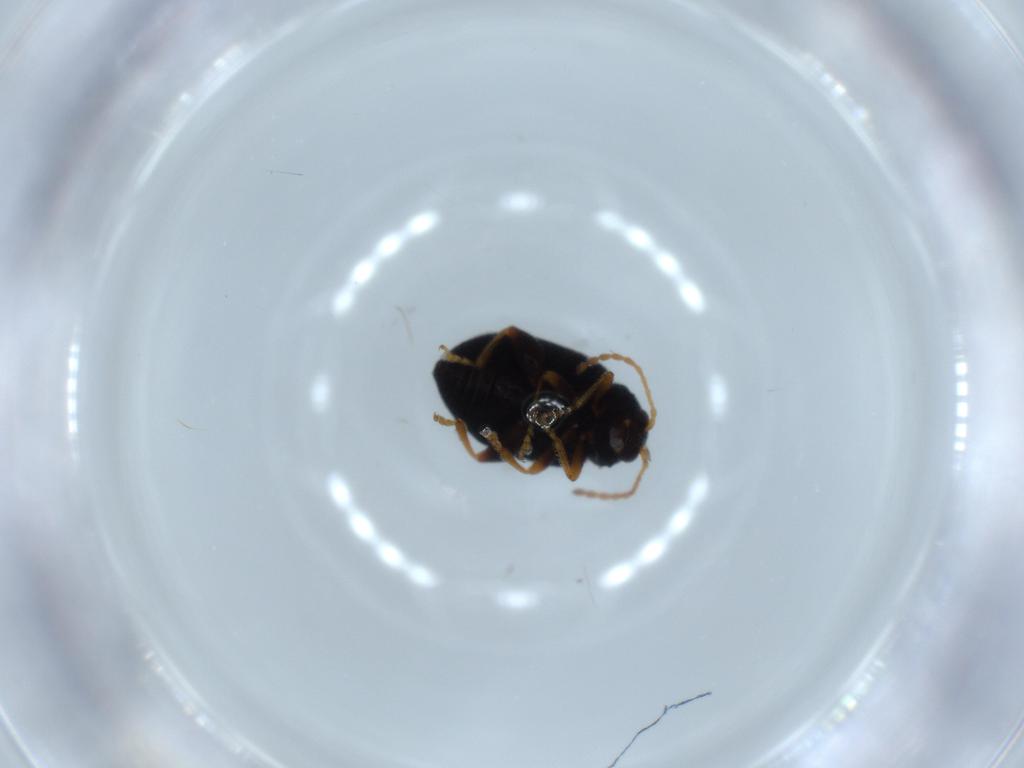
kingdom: Animalia
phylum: Arthropoda
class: Insecta
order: Coleoptera
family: Chrysomelidae
